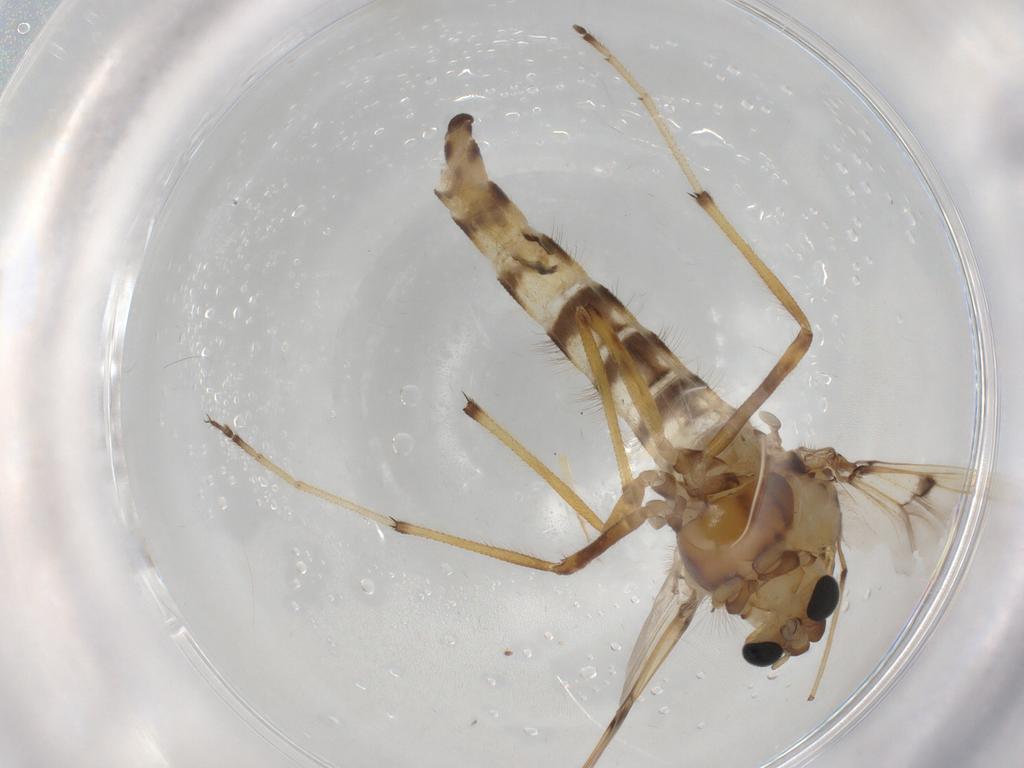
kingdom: Animalia
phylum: Arthropoda
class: Insecta
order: Diptera
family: Chironomidae
